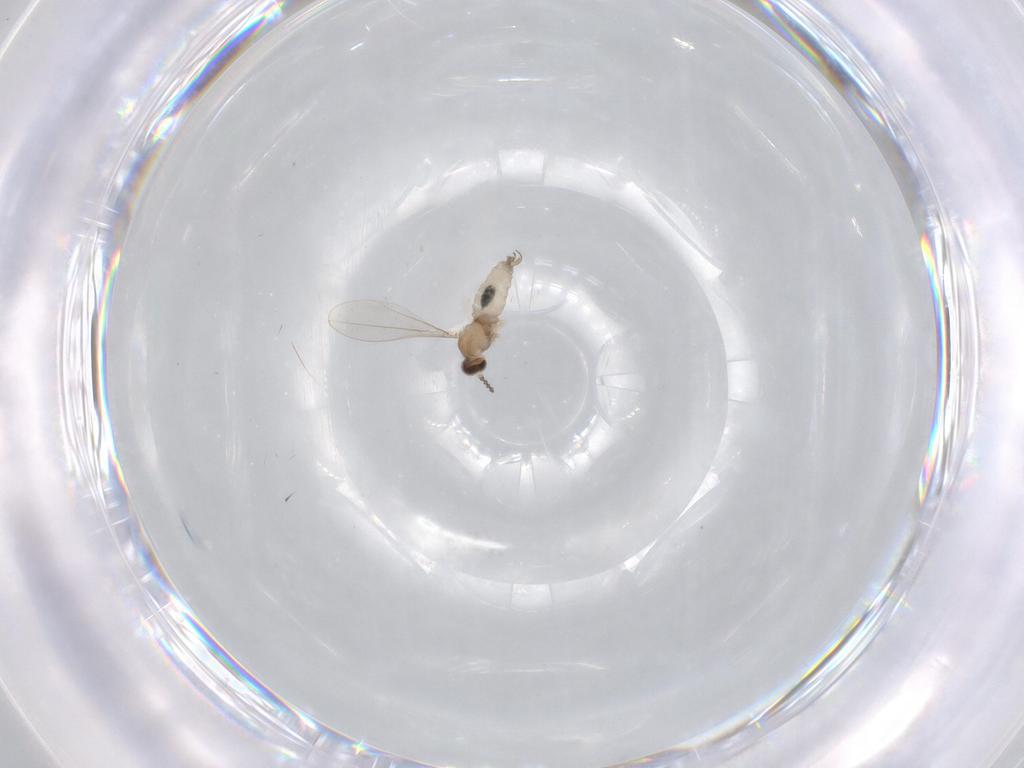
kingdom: Animalia
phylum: Arthropoda
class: Insecta
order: Diptera
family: Cecidomyiidae
